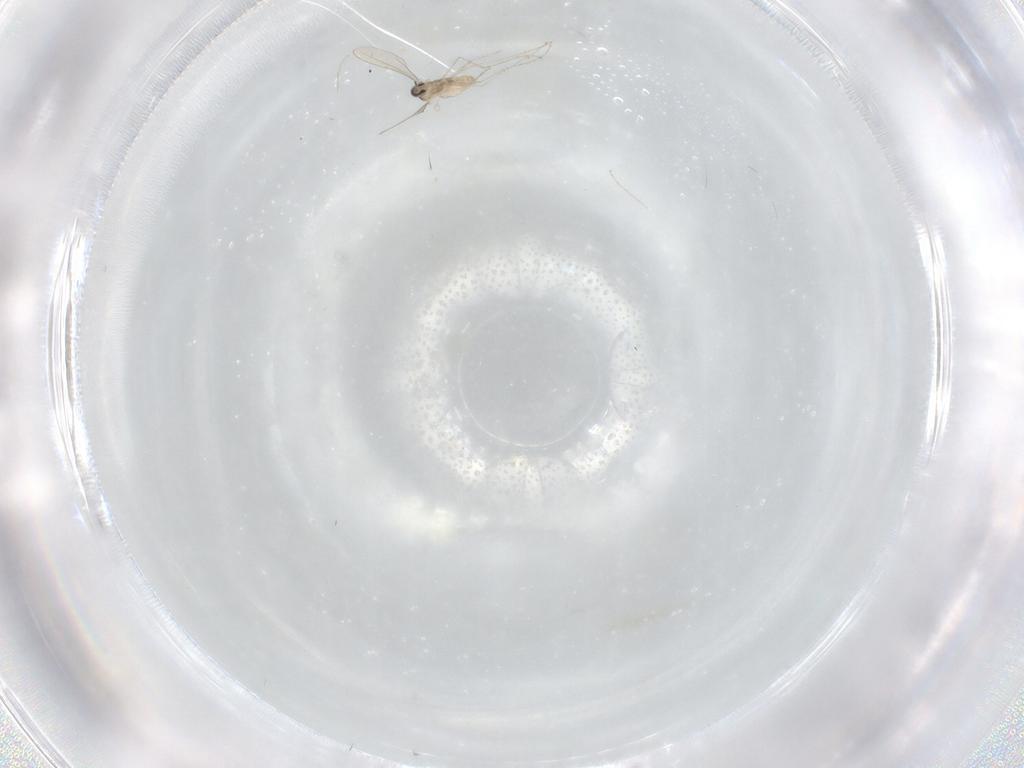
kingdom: Animalia
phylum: Arthropoda
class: Insecta
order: Diptera
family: Cecidomyiidae
